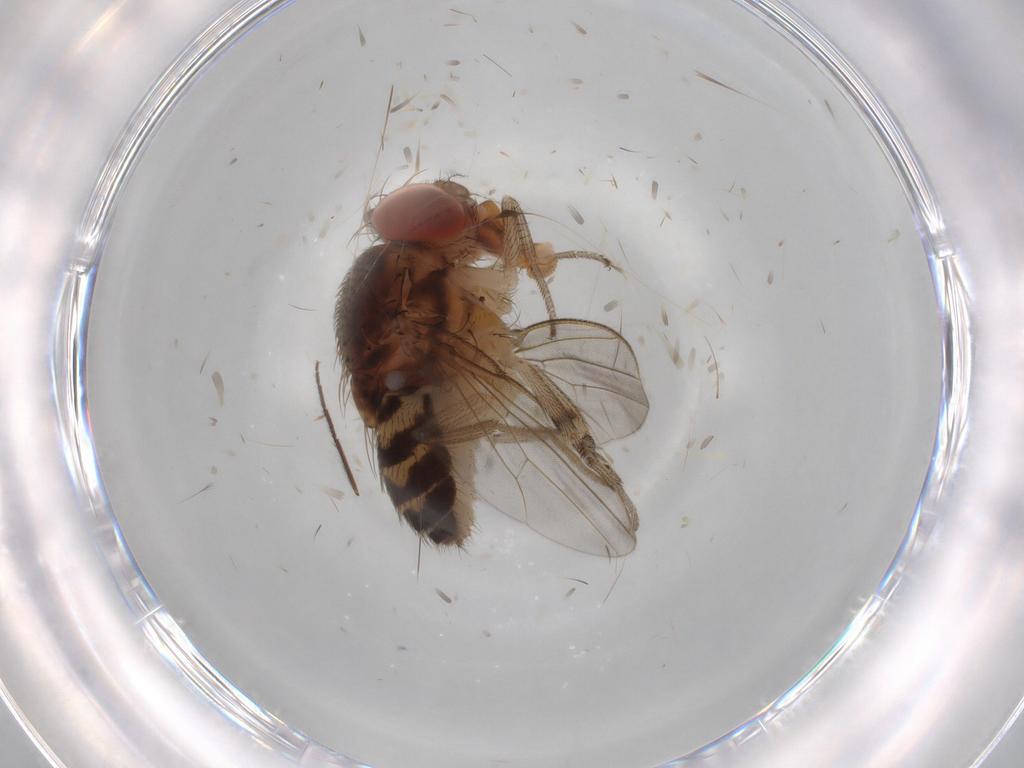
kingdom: Animalia
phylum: Arthropoda
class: Insecta
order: Diptera
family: Drosophilidae
